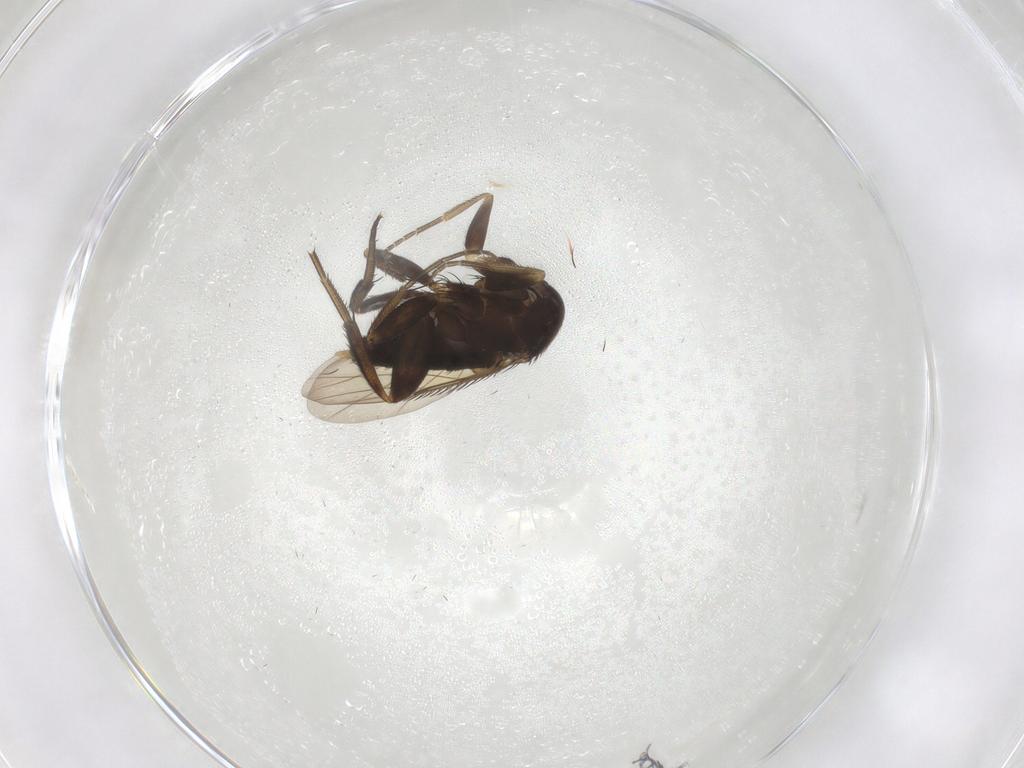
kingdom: Animalia
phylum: Arthropoda
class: Insecta
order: Diptera
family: Phoridae
